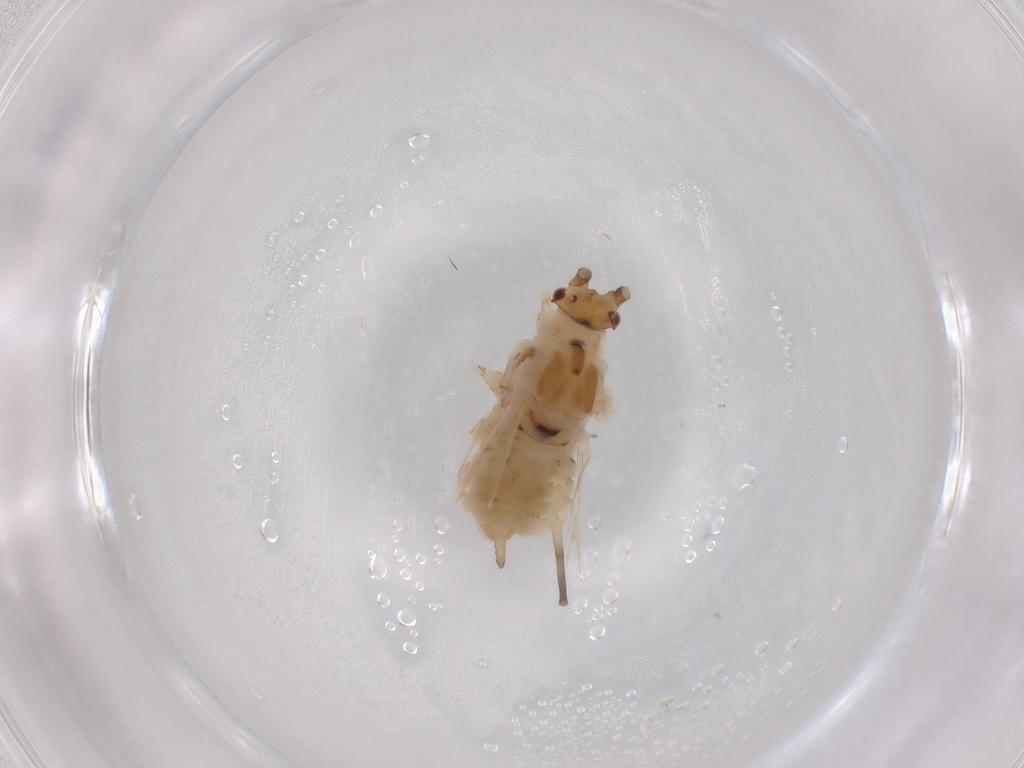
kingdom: Animalia
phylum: Arthropoda
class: Insecta
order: Hemiptera
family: Aphididae
